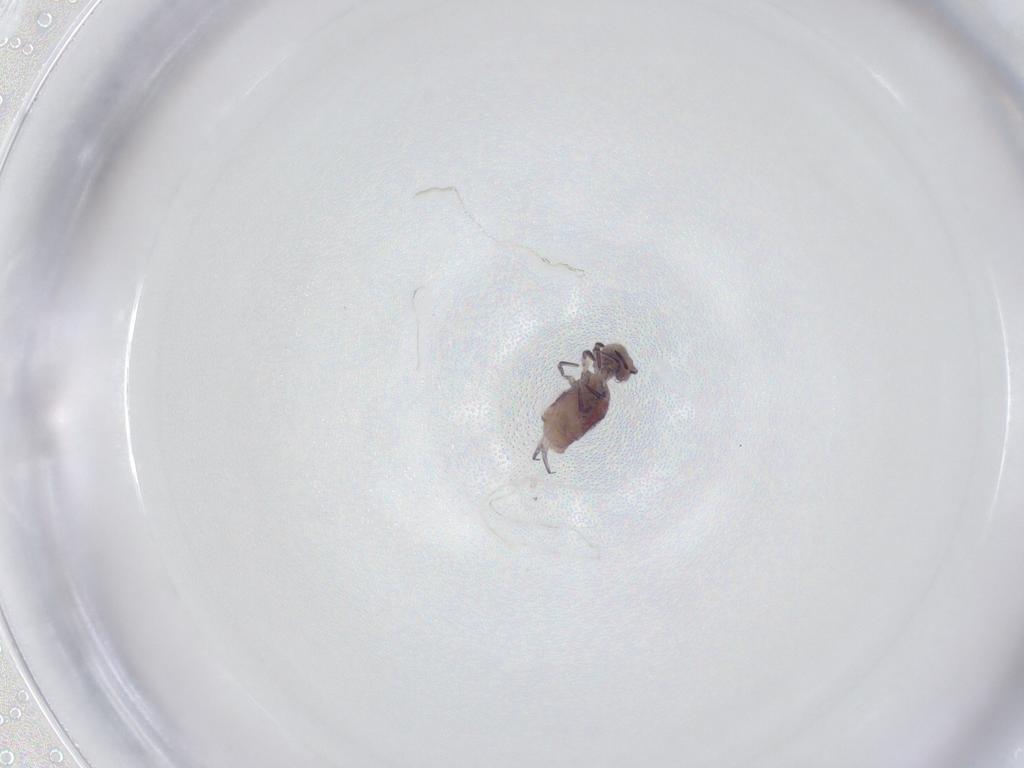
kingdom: Animalia
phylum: Arthropoda
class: Collembola
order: Symphypleona
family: Sminthuridae
